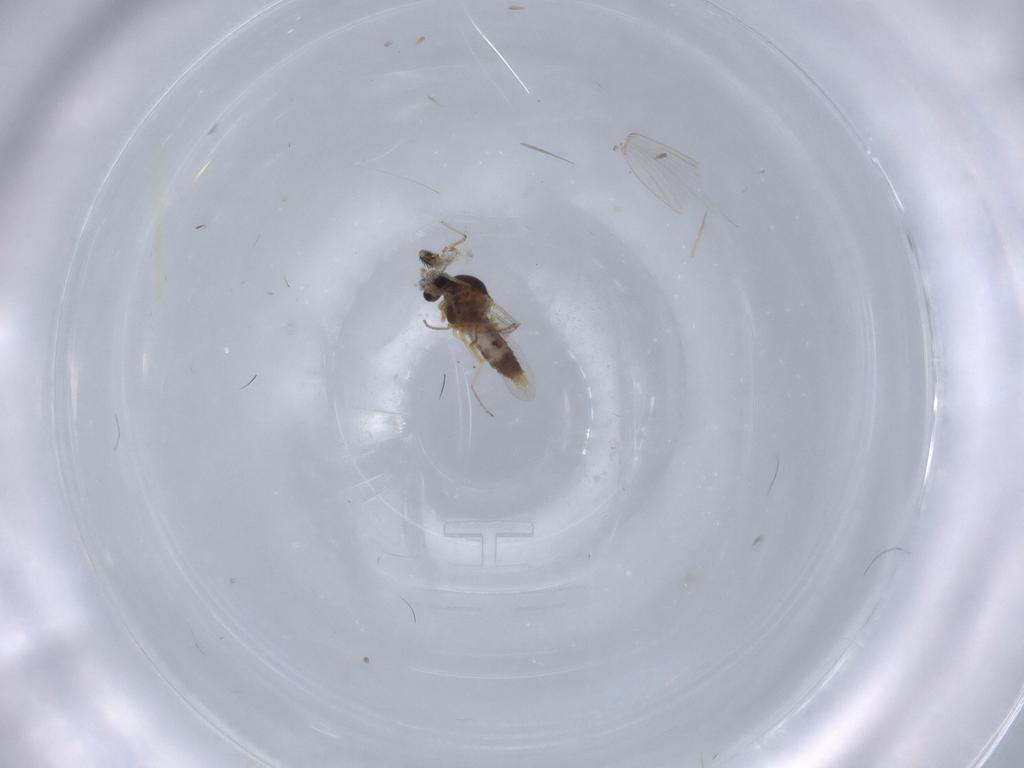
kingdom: Animalia
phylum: Arthropoda
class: Insecta
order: Diptera
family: Ceratopogonidae
